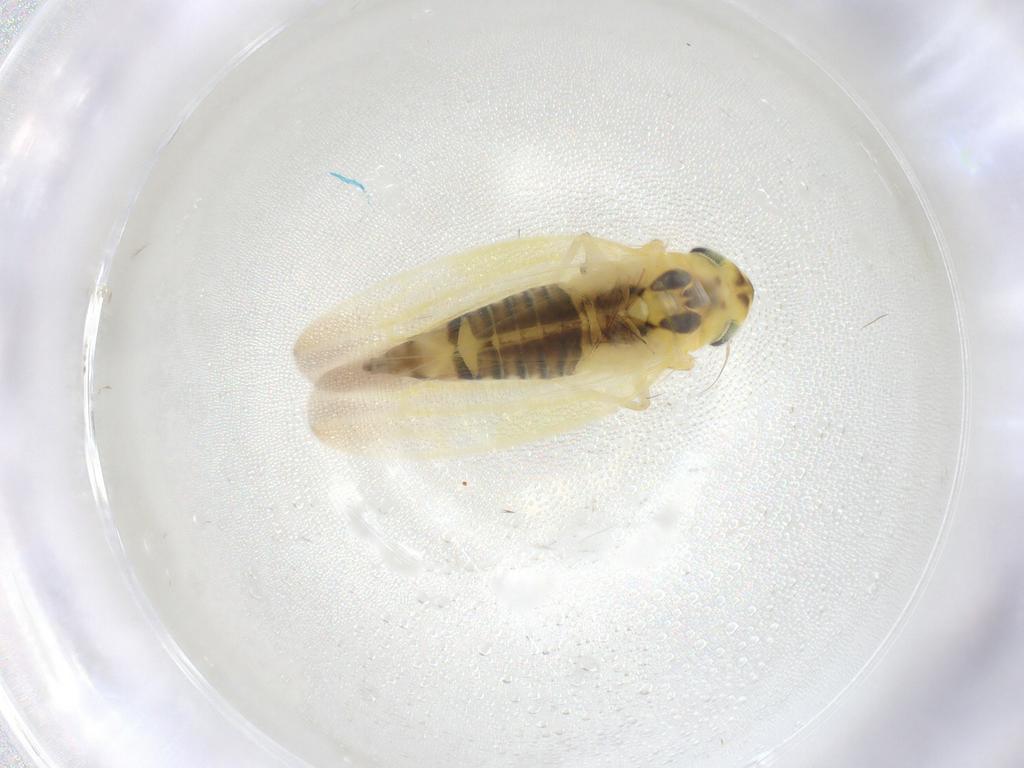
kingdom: Animalia
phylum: Arthropoda
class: Insecta
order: Hemiptera
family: Cicadellidae
